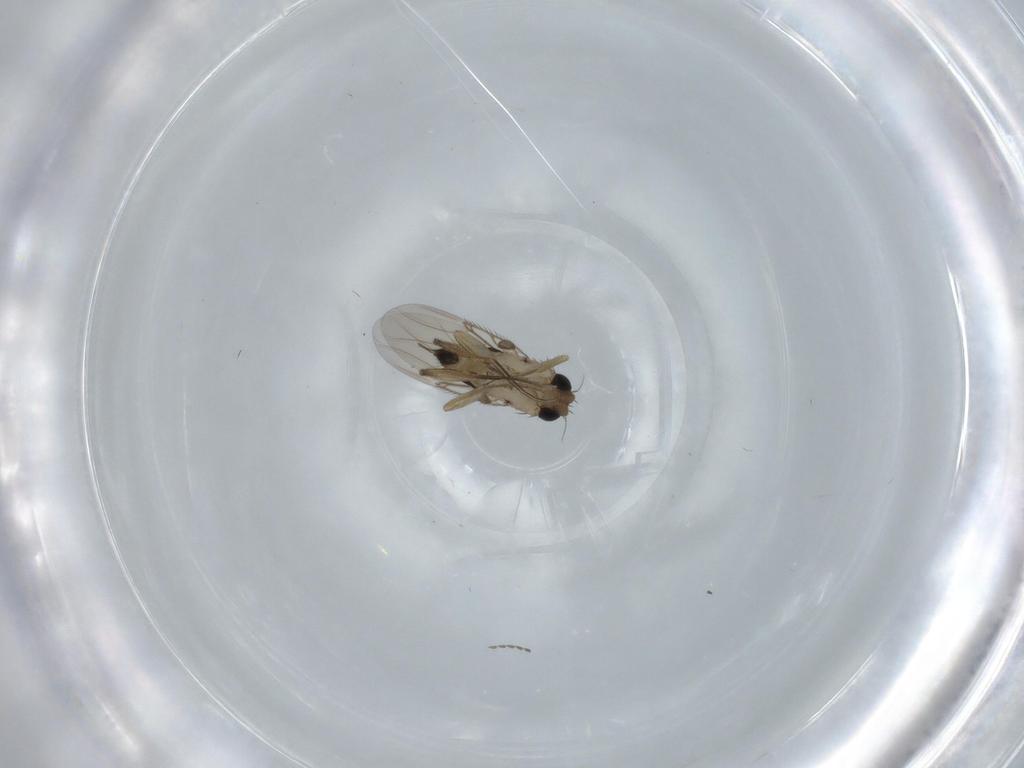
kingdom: Animalia
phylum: Arthropoda
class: Insecta
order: Diptera
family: Phoridae
